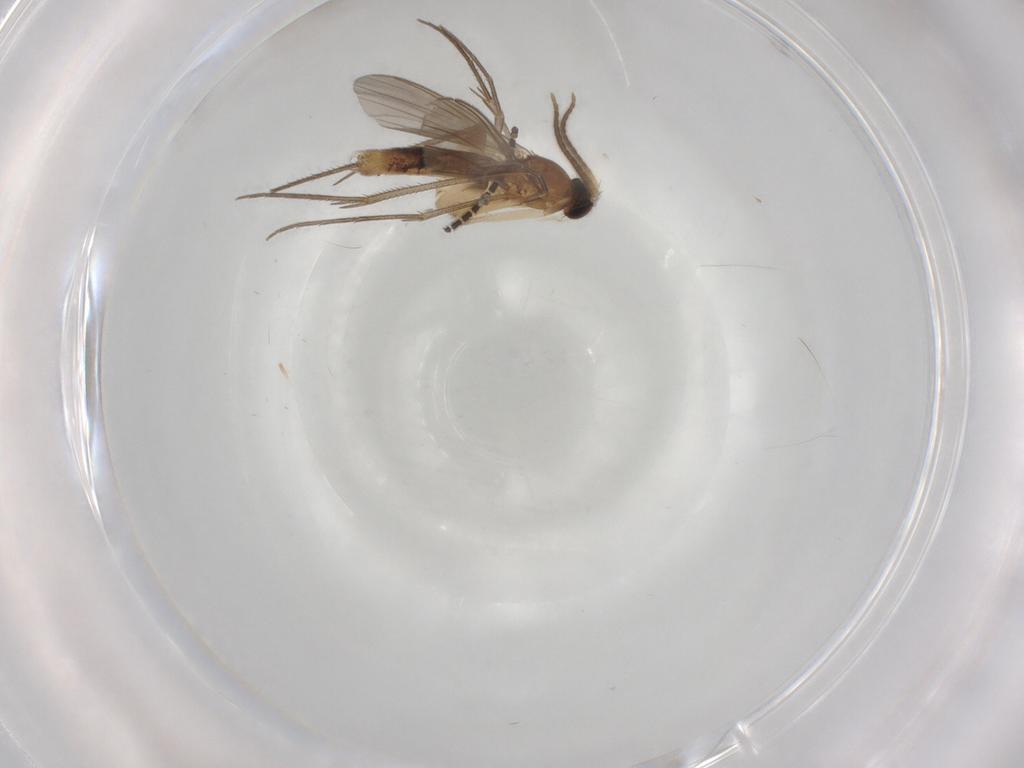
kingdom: Animalia
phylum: Arthropoda
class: Insecta
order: Diptera
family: Mycetophilidae
